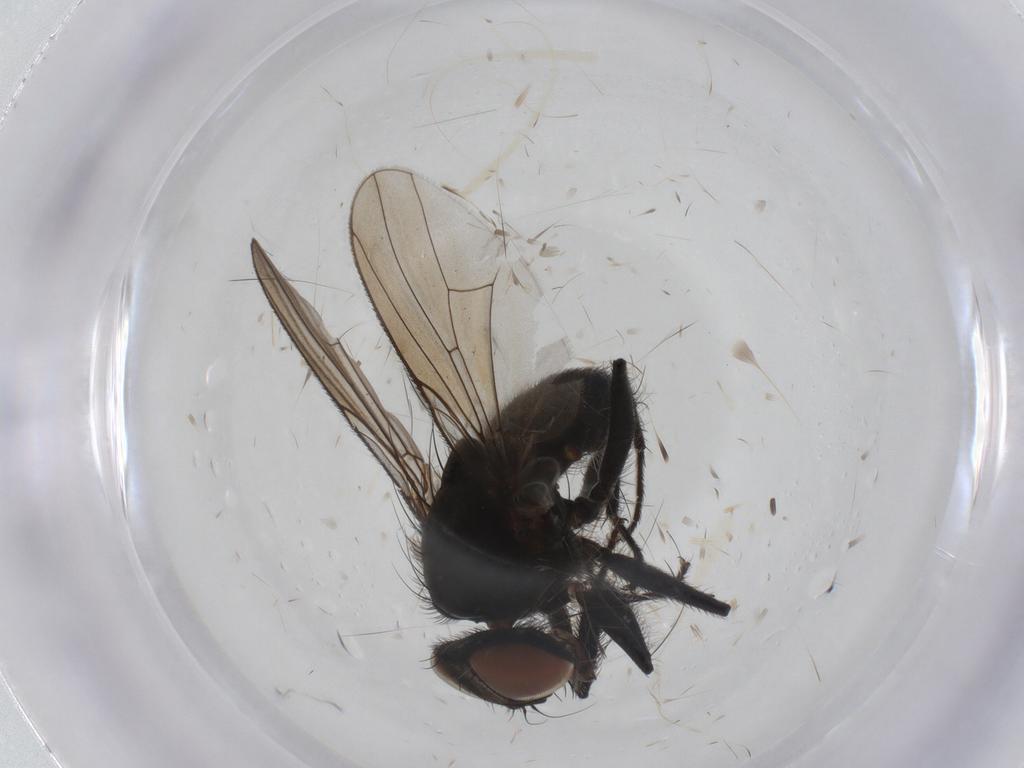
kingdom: Animalia
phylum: Arthropoda
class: Insecta
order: Diptera
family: Muscidae
